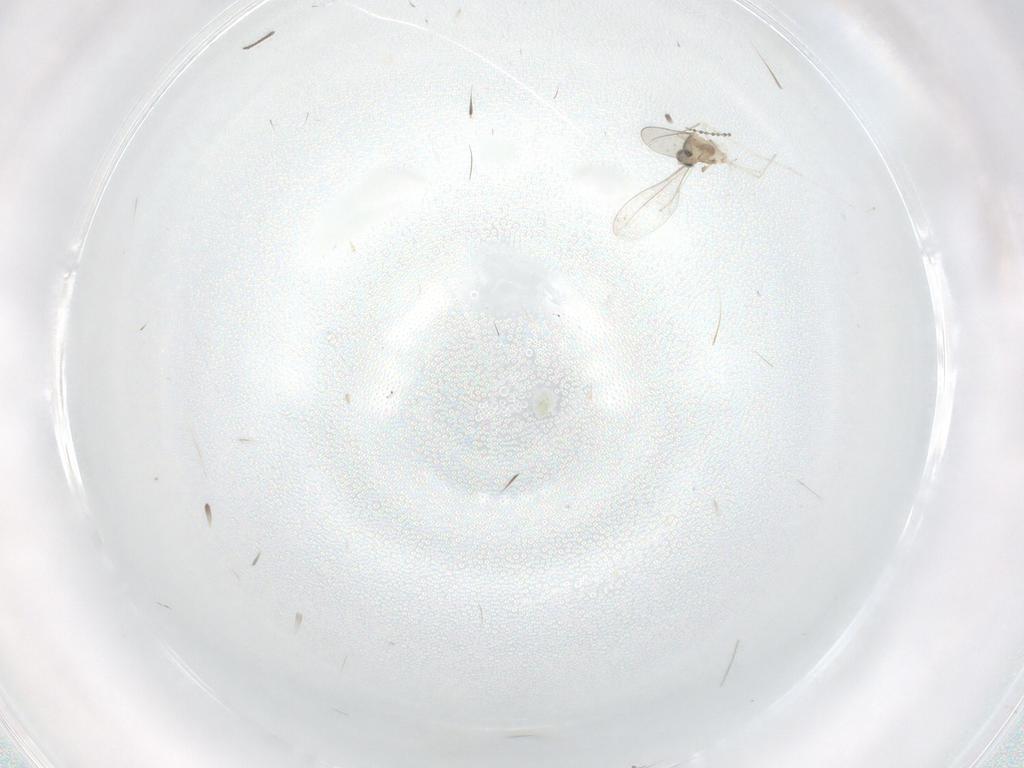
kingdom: Animalia
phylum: Arthropoda
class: Insecta
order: Diptera
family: Cecidomyiidae
